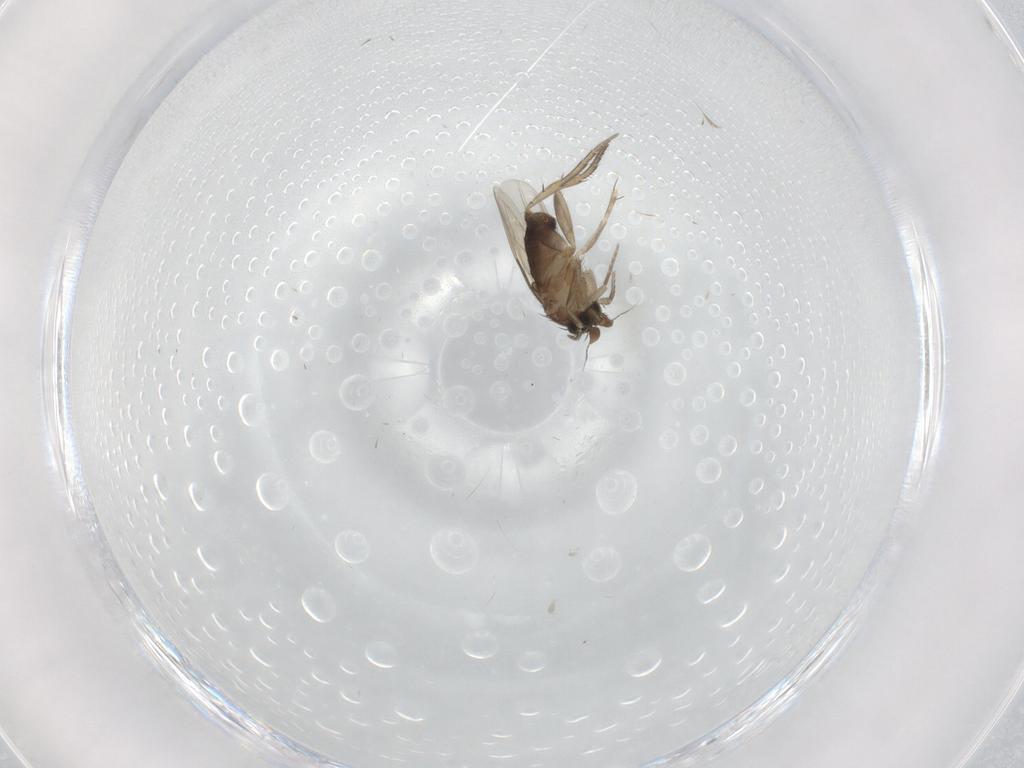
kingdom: Animalia
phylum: Arthropoda
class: Insecta
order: Diptera
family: Phoridae
